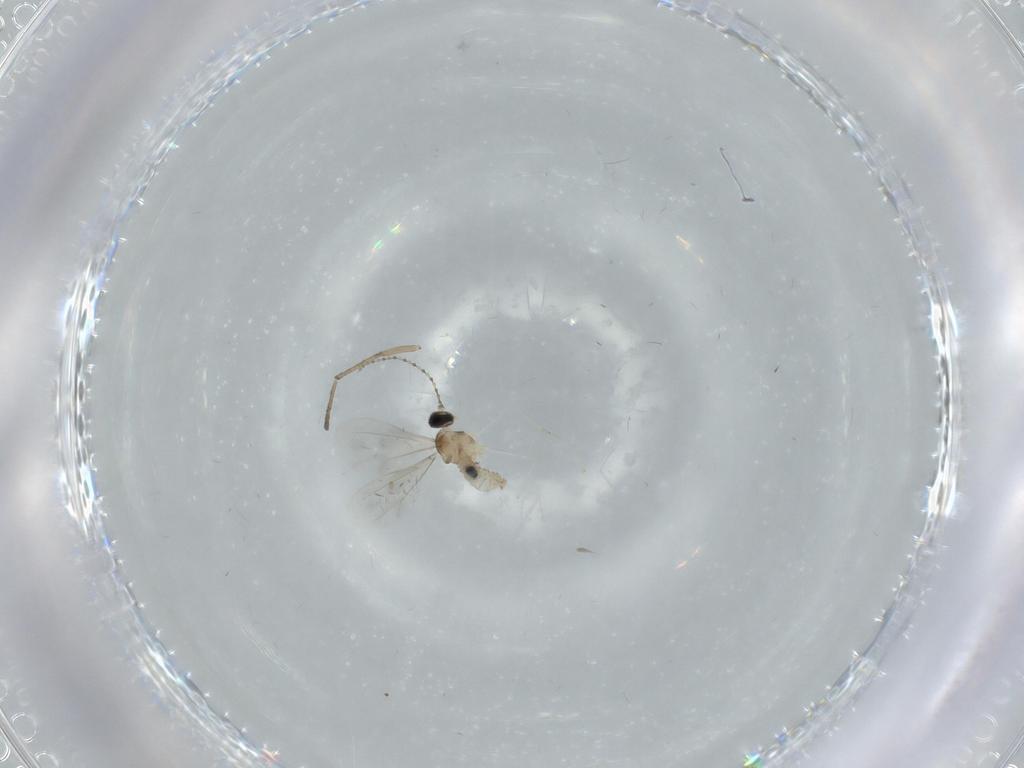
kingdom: Animalia
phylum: Arthropoda
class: Insecta
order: Diptera
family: Cecidomyiidae
